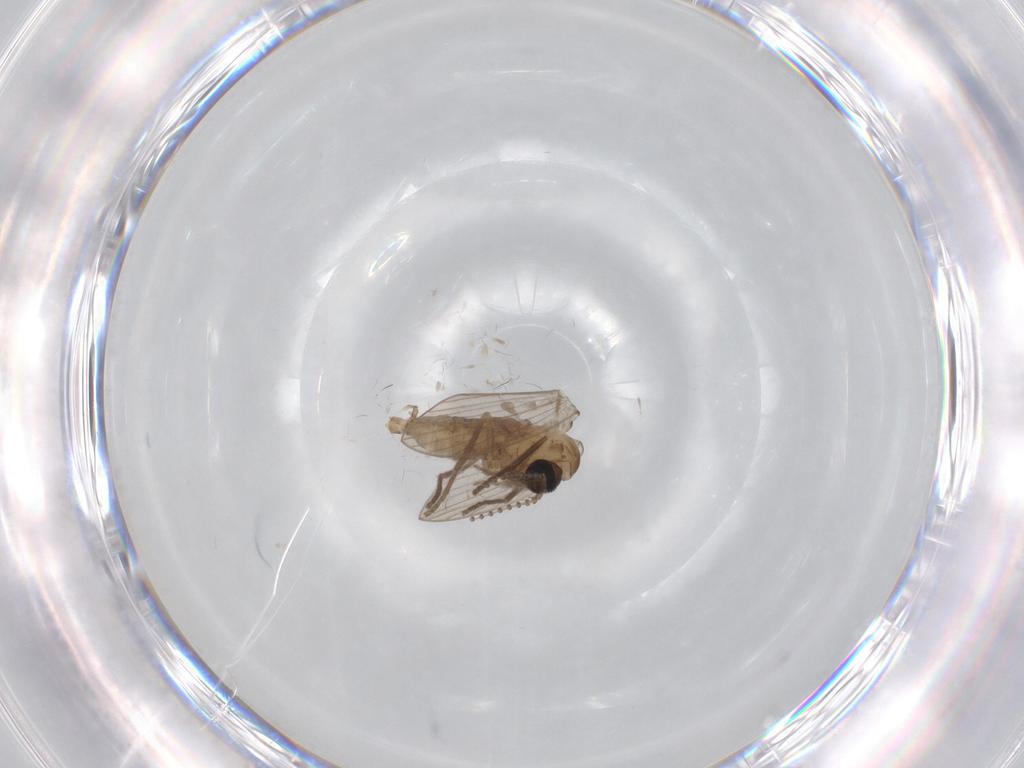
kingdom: Animalia
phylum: Arthropoda
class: Insecta
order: Diptera
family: Psychodidae
